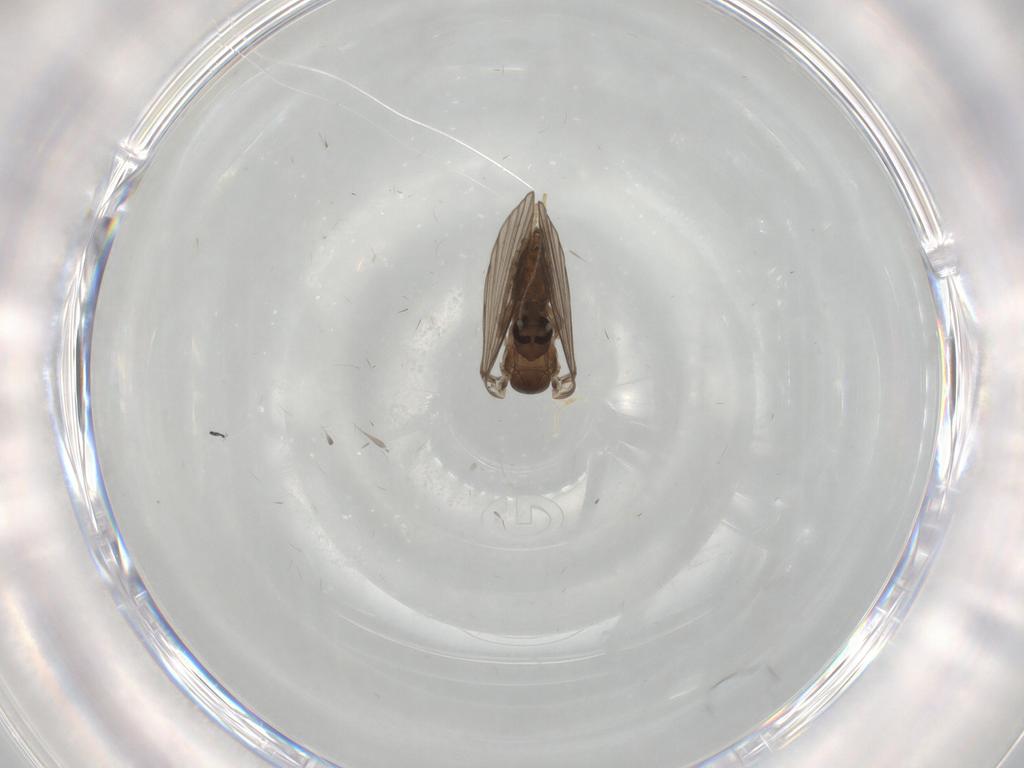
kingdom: Animalia
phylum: Arthropoda
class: Insecta
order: Diptera
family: Psychodidae
